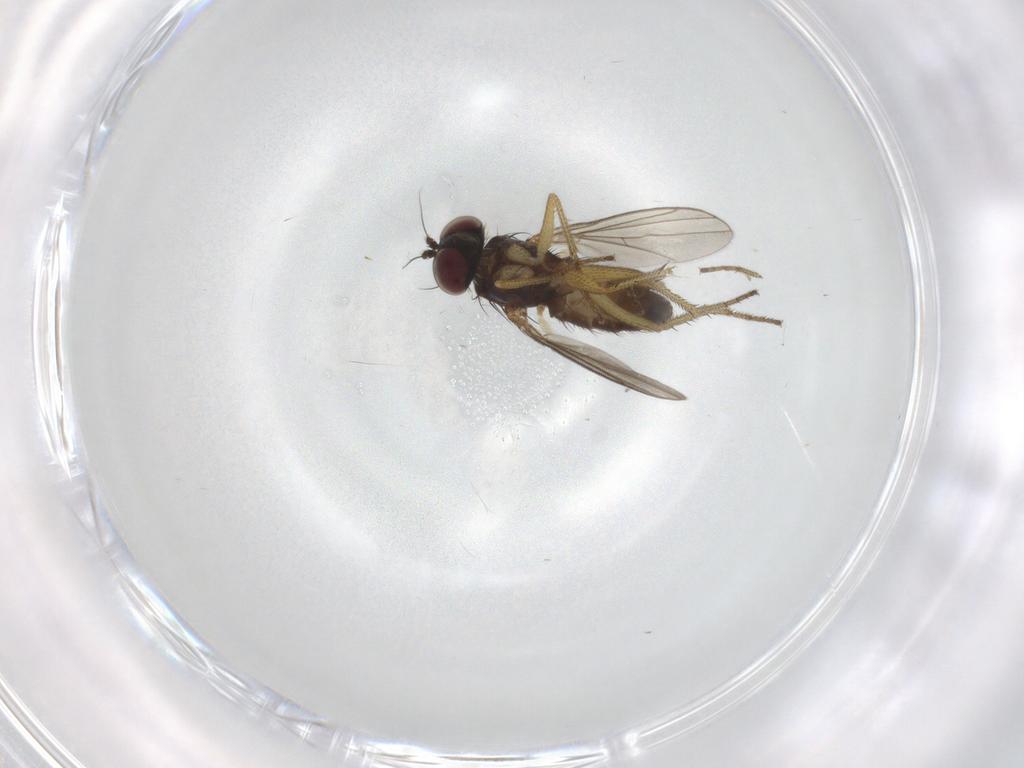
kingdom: Animalia
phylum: Arthropoda
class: Insecta
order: Diptera
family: Dolichopodidae
